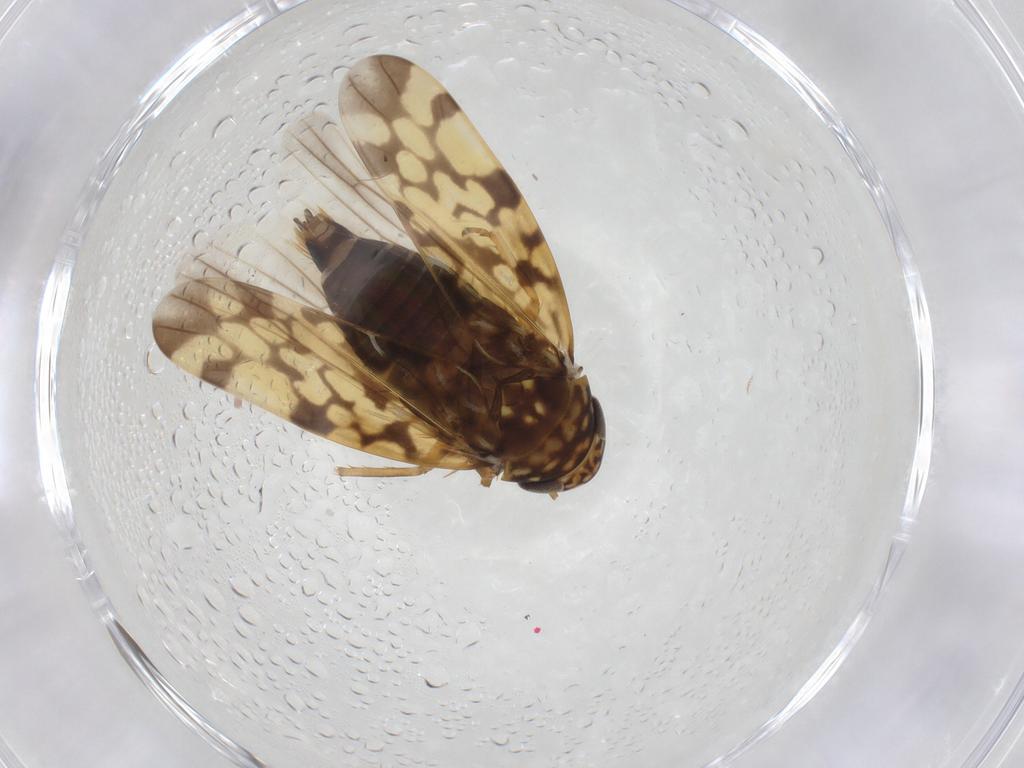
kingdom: Animalia
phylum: Arthropoda
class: Insecta
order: Hemiptera
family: Cicadellidae
